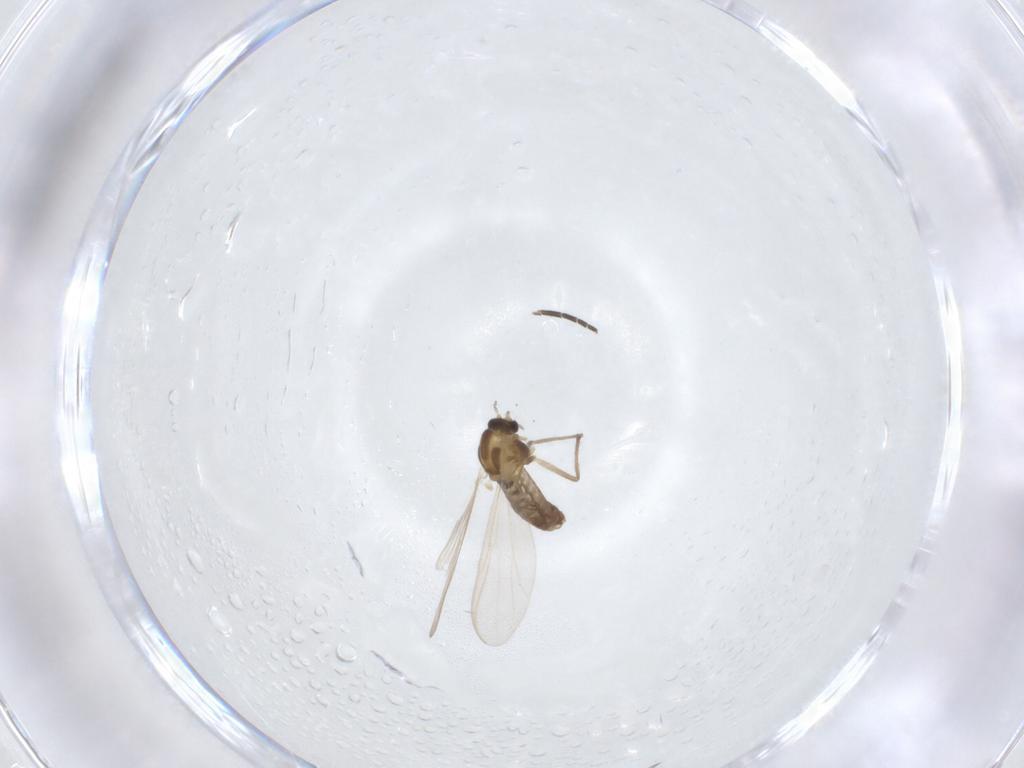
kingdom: Animalia
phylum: Arthropoda
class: Insecta
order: Diptera
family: Sciaridae
